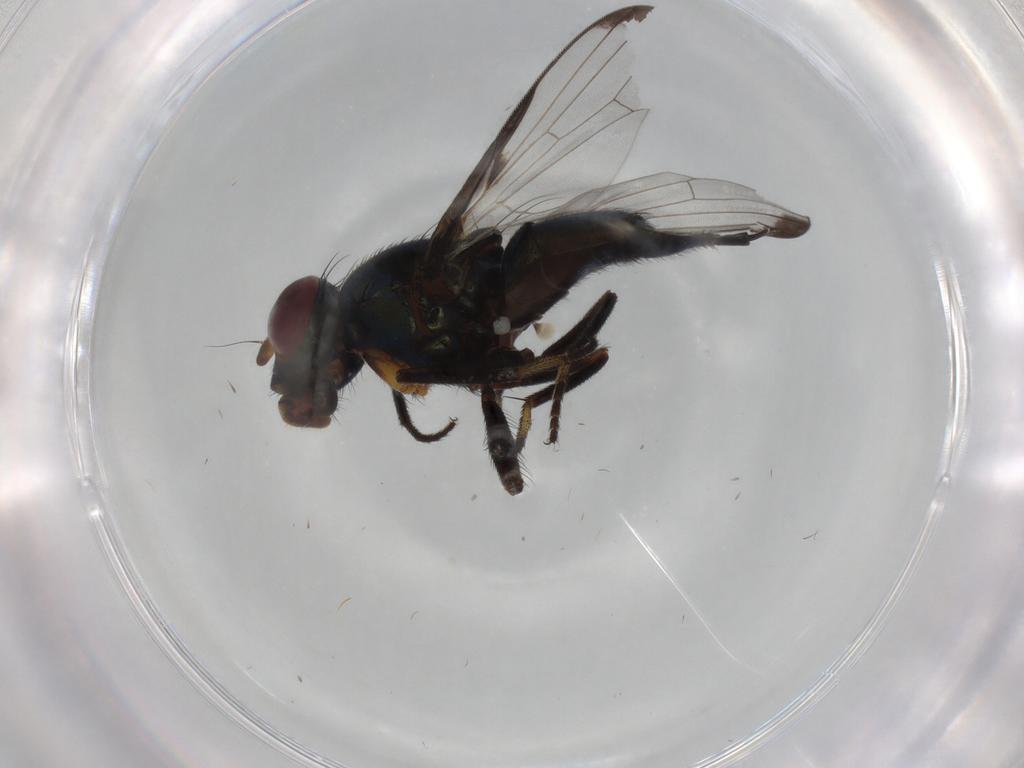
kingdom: Animalia
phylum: Arthropoda
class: Insecta
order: Diptera
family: Ulidiidae
